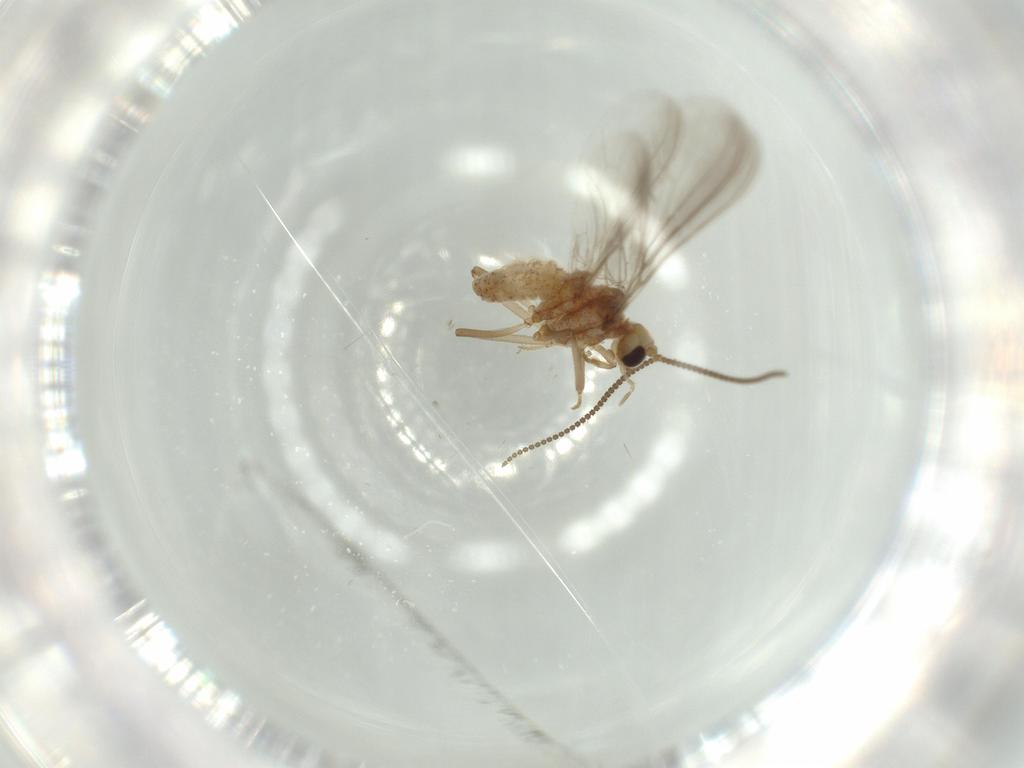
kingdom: Animalia
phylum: Arthropoda
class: Insecta
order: Neuroptera
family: Coniopterygidae
